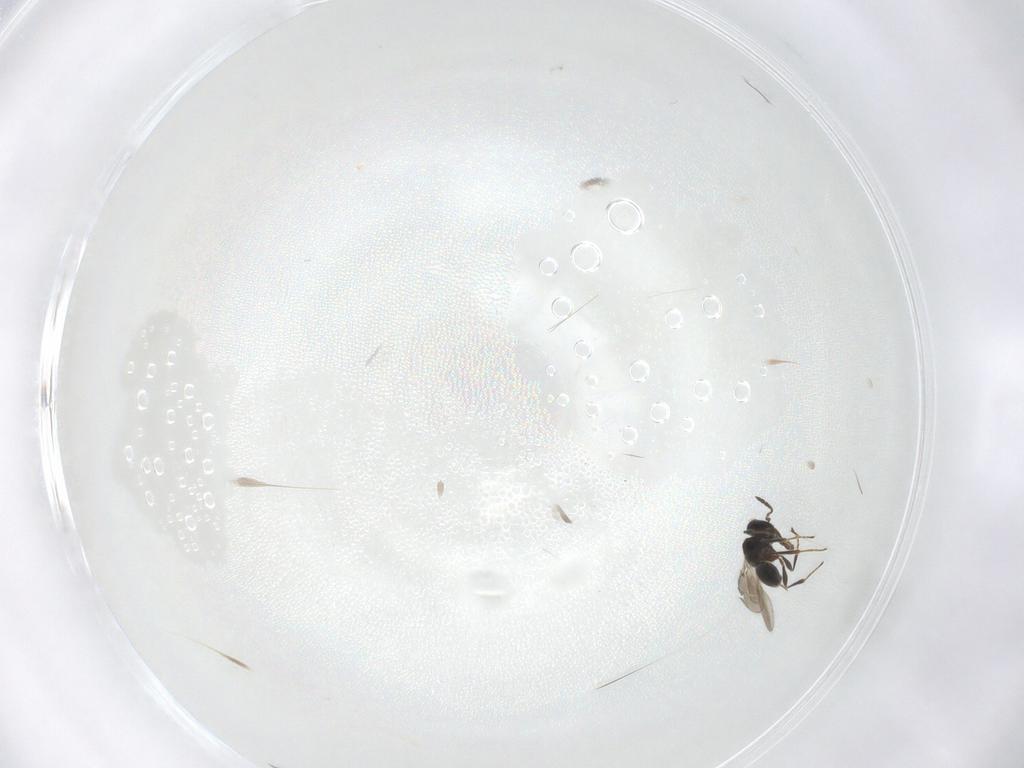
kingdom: Animalia
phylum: Arthropoda
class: Insecta
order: Hymenoptera
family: Platygastridae
